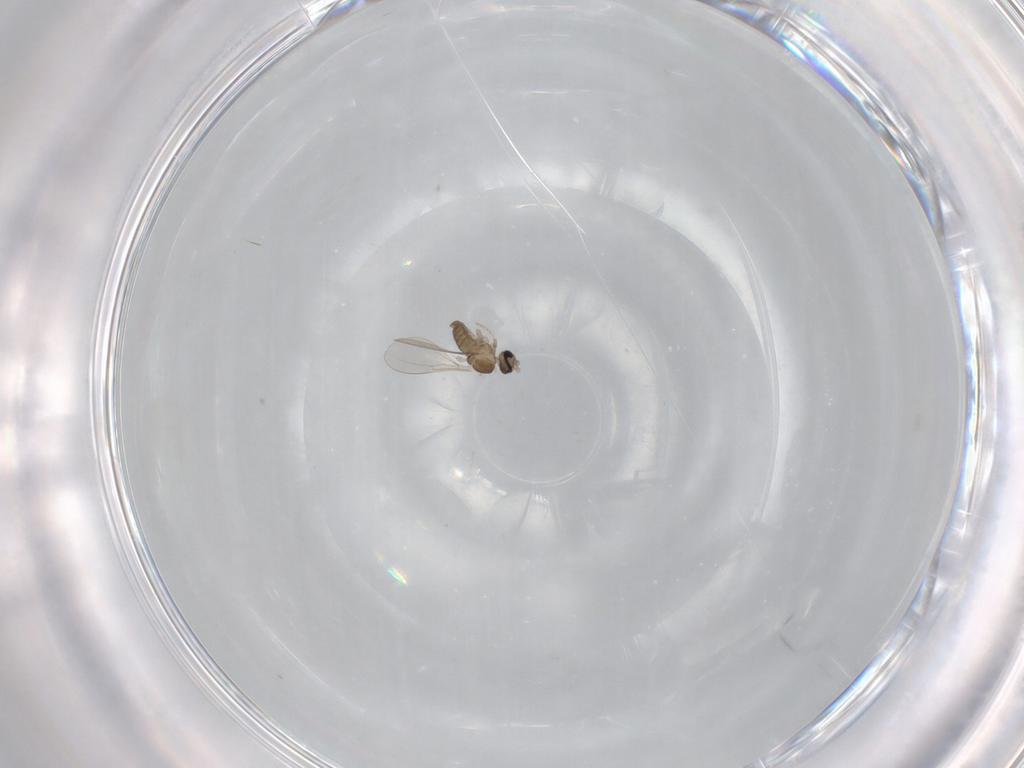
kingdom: Animalia
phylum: Arthropoda
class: Insecta
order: Diptera
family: Cecidomyiidae
